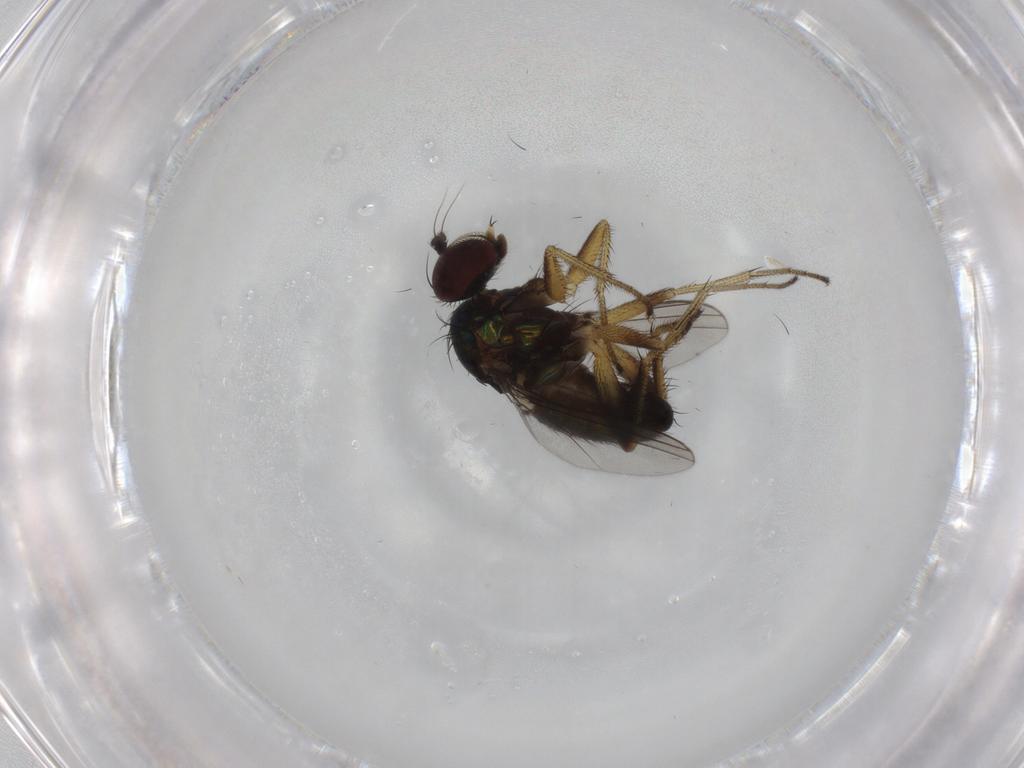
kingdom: Animalia
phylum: Arthropoda
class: Insecta
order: Diptera
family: Dolichopodidae
